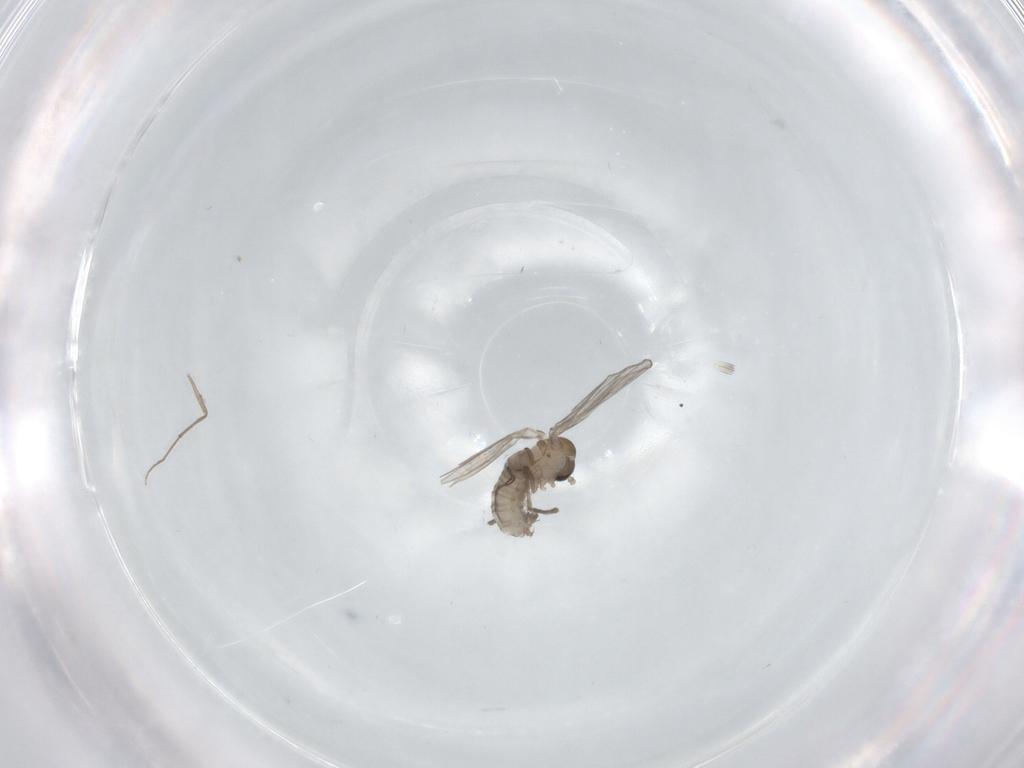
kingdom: Animalia
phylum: Arthropoda
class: Insecta
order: Diptera
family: Psychodidae
